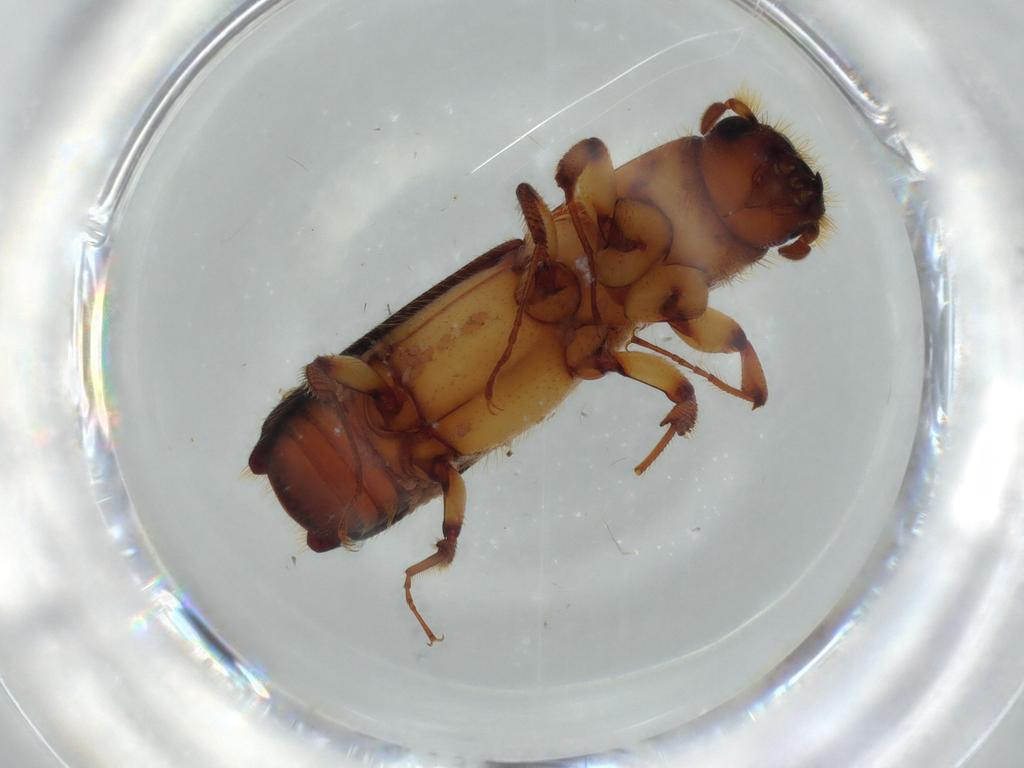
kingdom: Animalia
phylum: Arthropoda
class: Insecta
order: Coleoptera
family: Curculionidae
